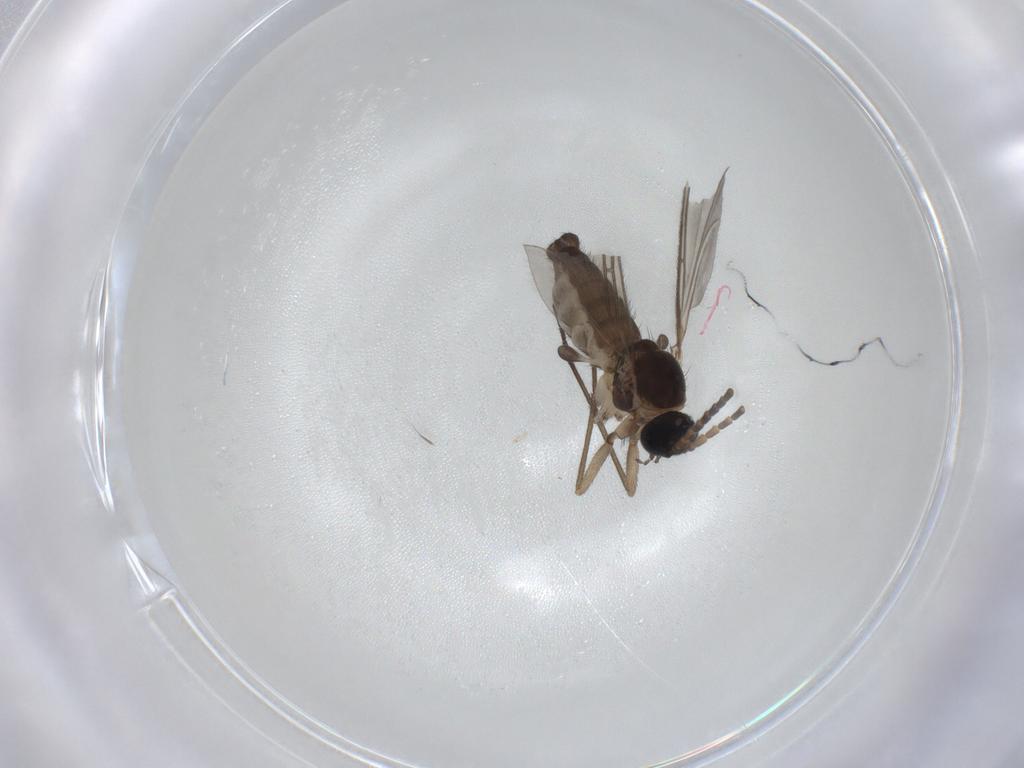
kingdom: Animalia
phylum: Arthropoda
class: Insecta
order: Diptera
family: Sciaridae
